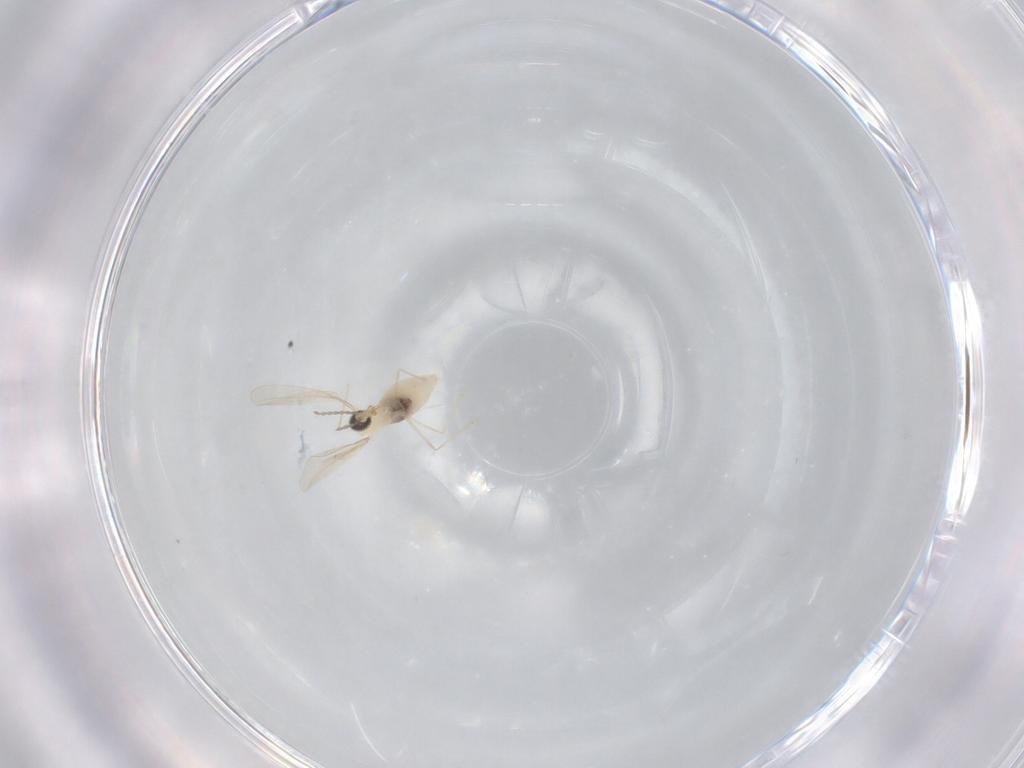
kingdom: Animalia
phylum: Arthropoda
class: Insecta
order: Diptera
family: Cecidomyiidae
